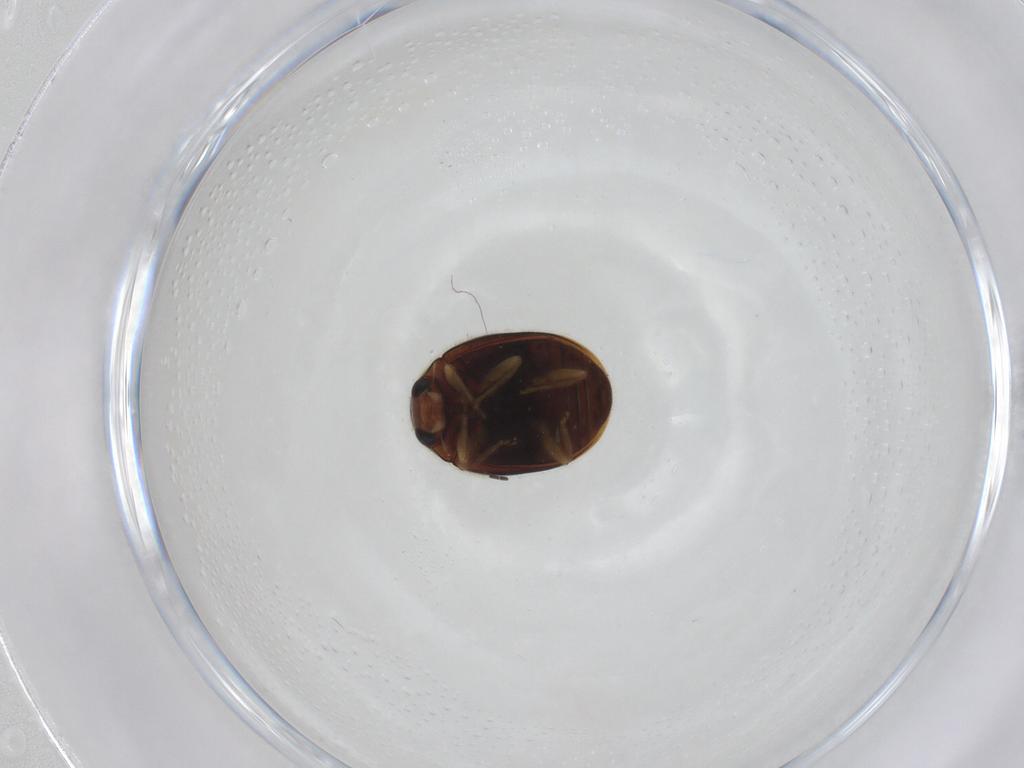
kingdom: Animalia
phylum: Arthropoda
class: Insecta
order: Coleoptera
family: Coccinellidae
